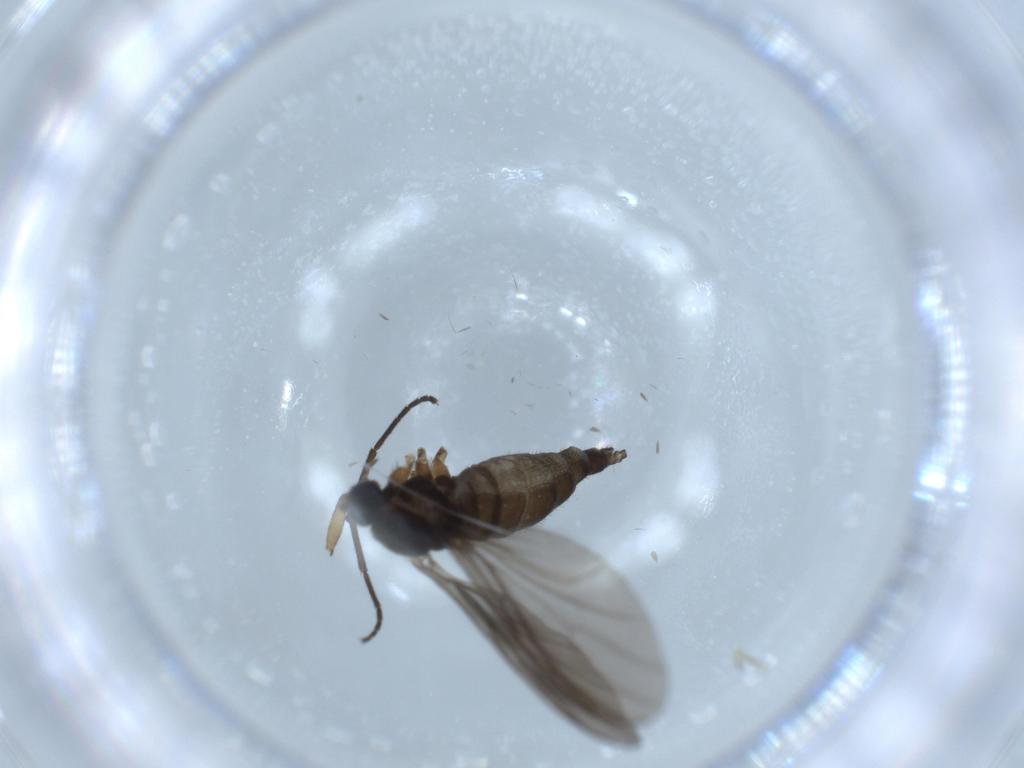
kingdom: Animalia
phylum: Arthropoda
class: Insecta
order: Diptera
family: Sciaridae
